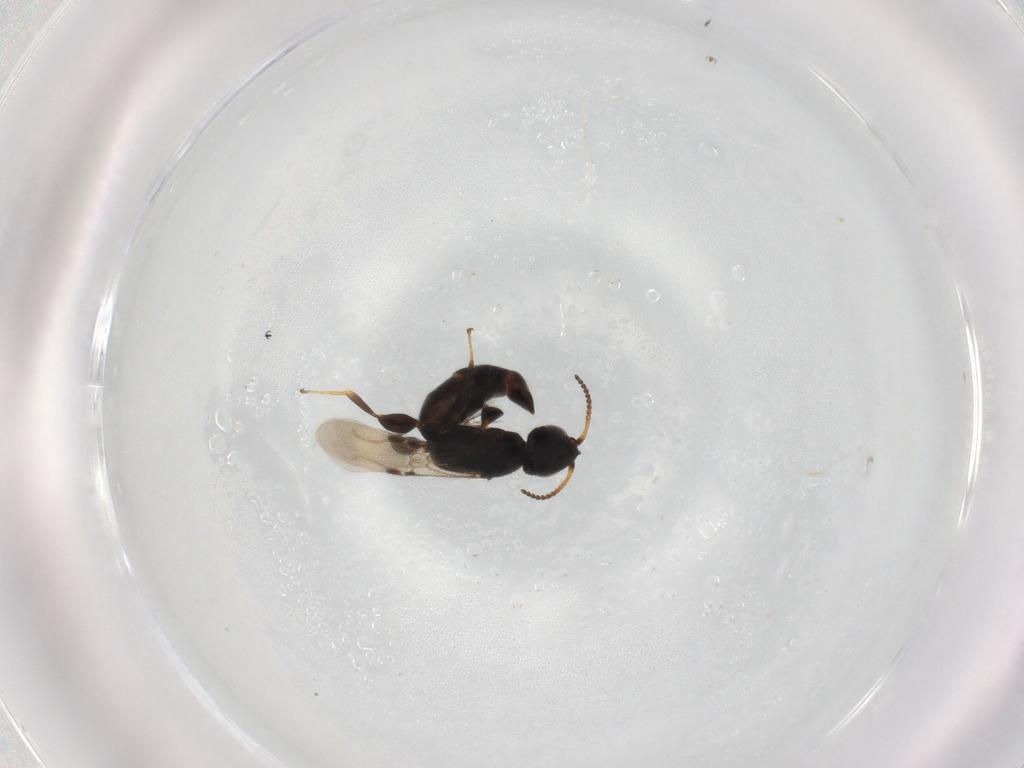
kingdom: Animalia
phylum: Arthropoda
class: Insecta
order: Hymenoptera
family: Bethylidae
